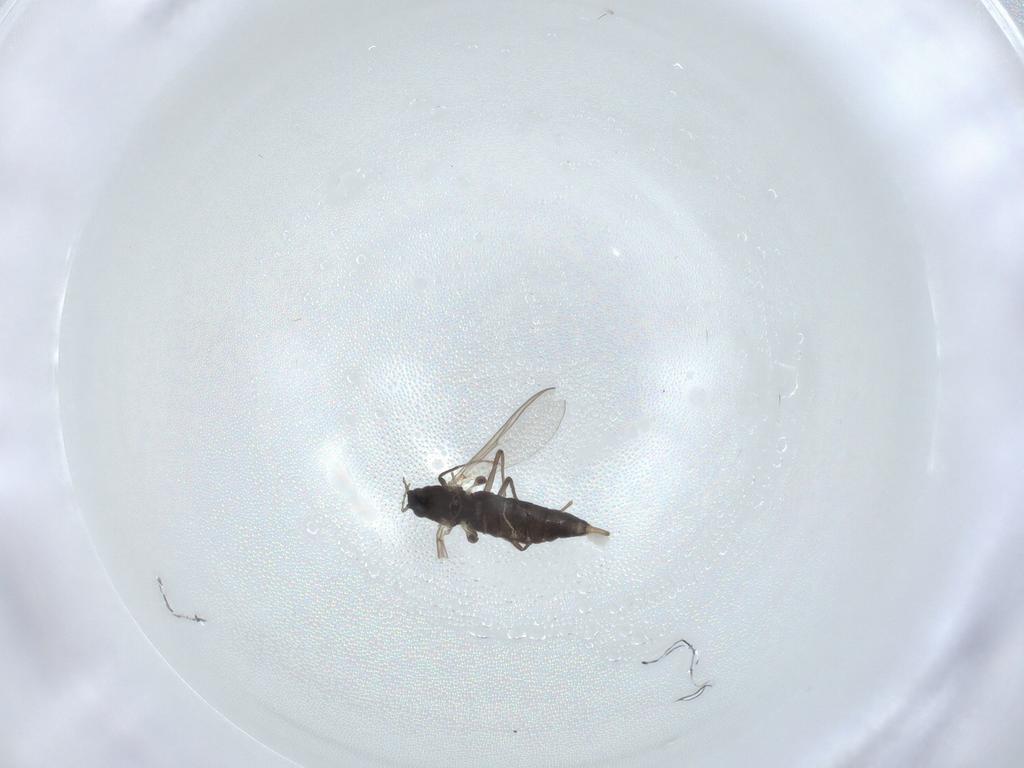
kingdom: Animalia
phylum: Arthropoda
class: Insecta
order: Diptera
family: Chironomidae
